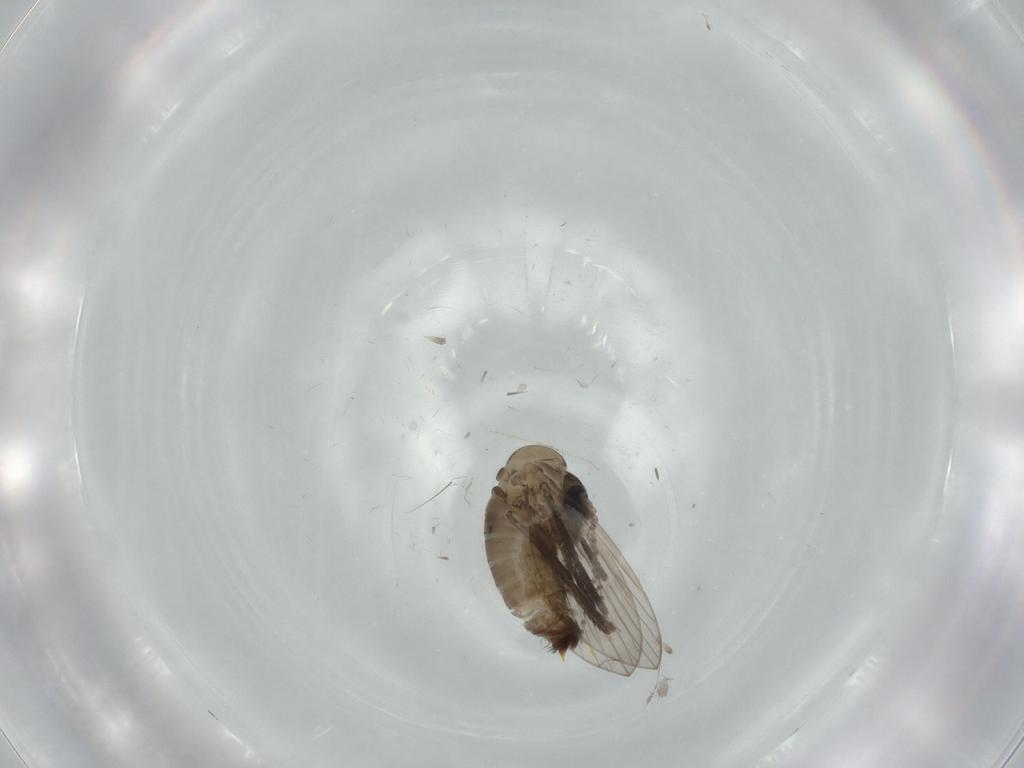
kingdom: Animalia
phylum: Arthropoda
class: Insecta
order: Diptera
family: Psychodidae
